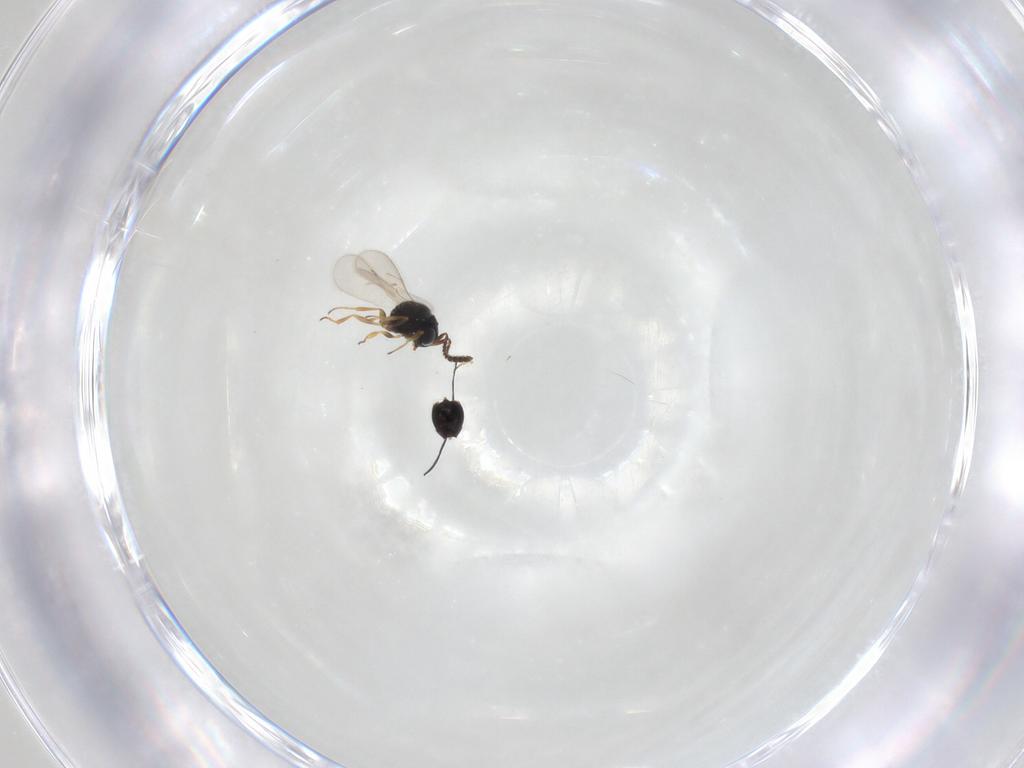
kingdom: Animalia
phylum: Arthropoda
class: Insecta
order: Hymenoptera
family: Scelionidae
